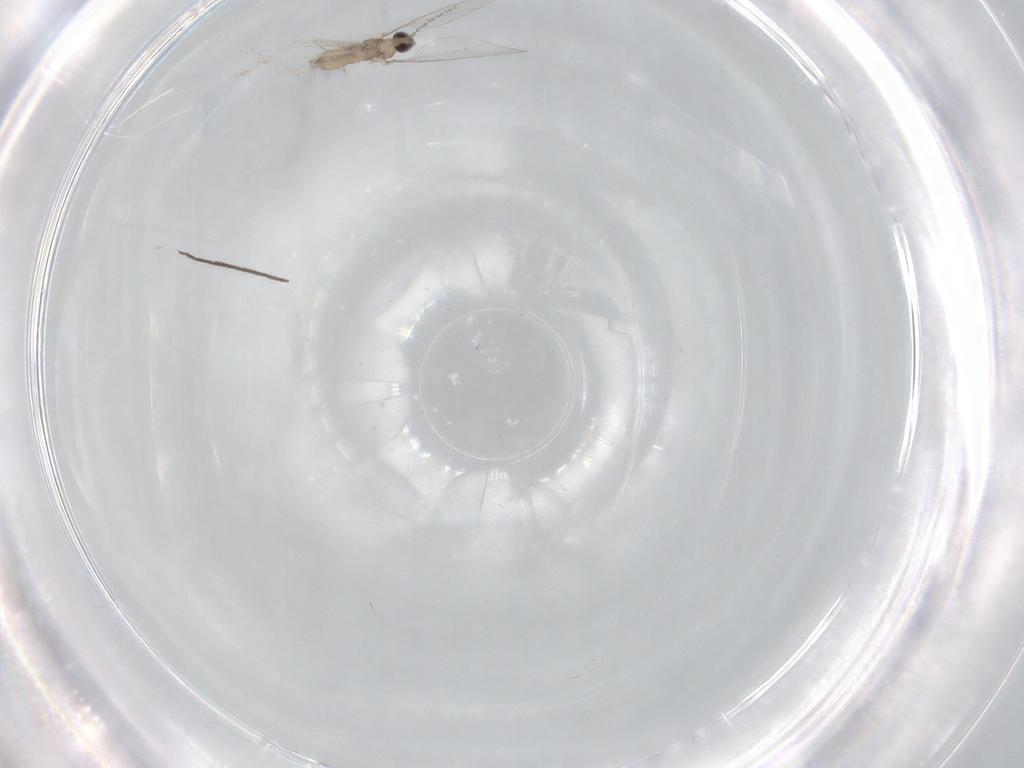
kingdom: Animalia
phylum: Arthropoda
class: Insecta
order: Diptera
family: Cecidomyiidae
